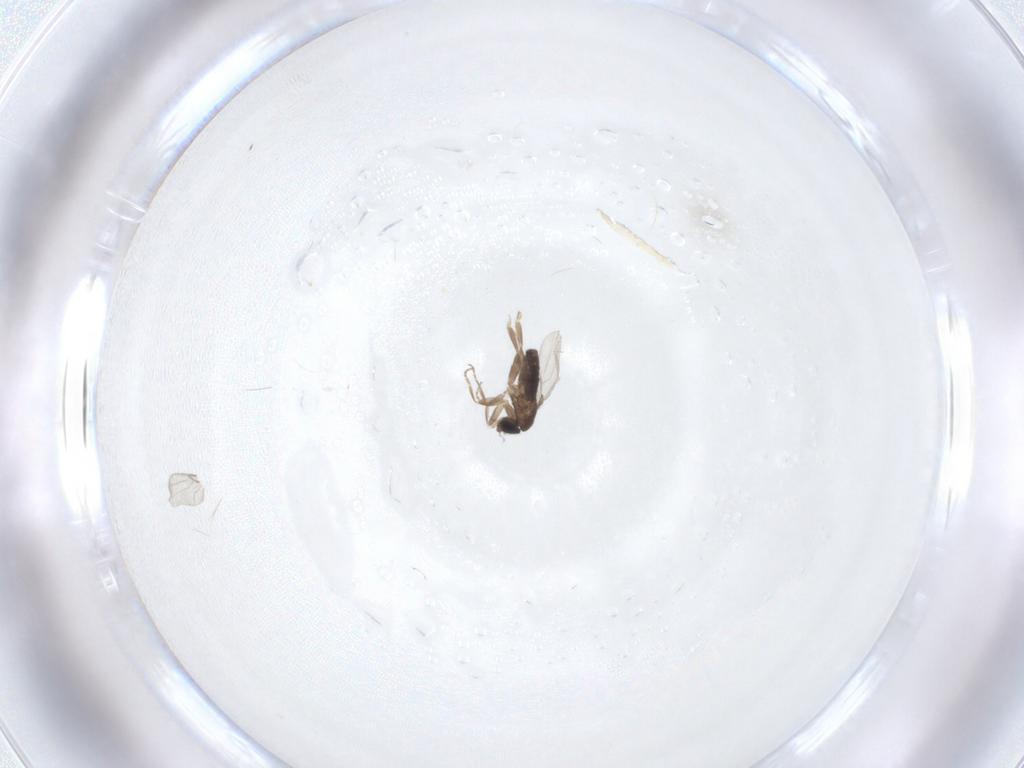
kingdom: Animalia
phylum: Arthropoda
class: Insecta
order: Diptera
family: Phoridae
